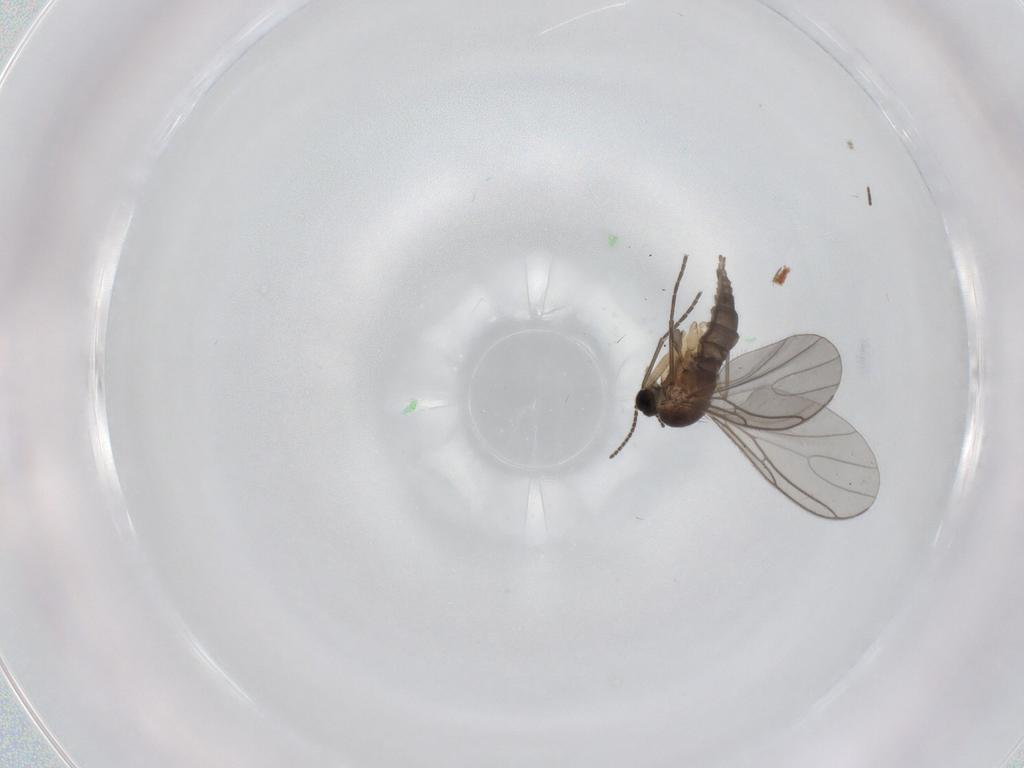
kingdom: Animalia
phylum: Arthropoda
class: Insecta
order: Diptera
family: Sciaridae
